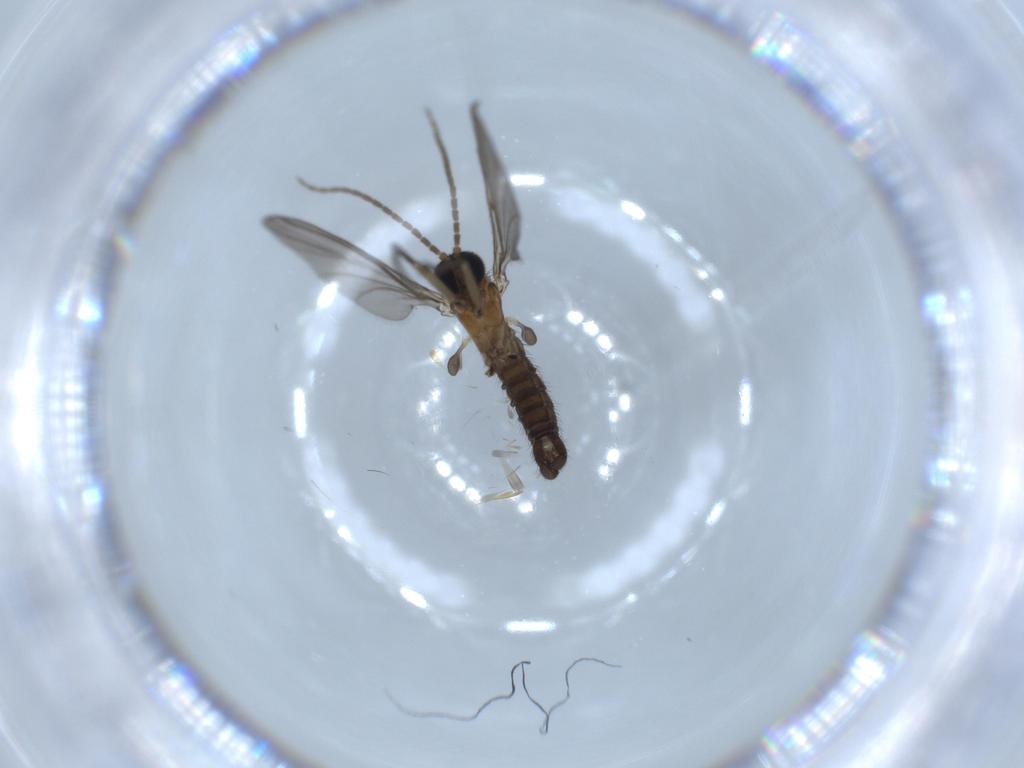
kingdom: Animalia
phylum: Arthropoda
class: Insecta
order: Diptera
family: Sciaridae
